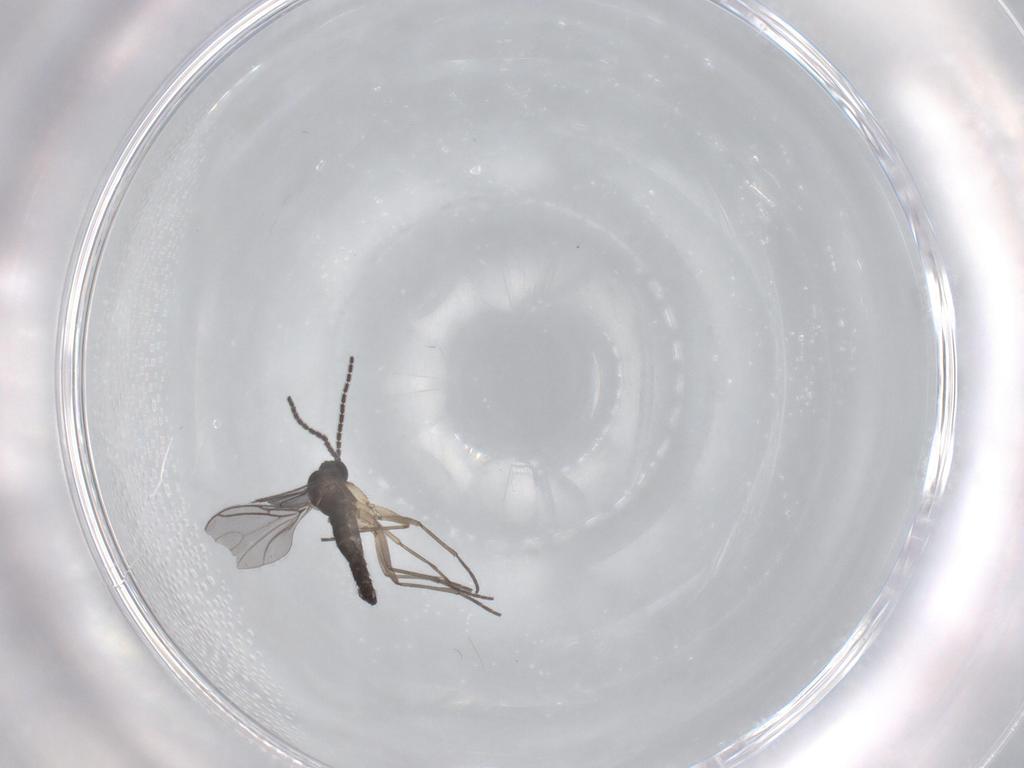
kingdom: Animalia
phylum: Arthropoda
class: Insecta
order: Diptera
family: Sciaridae
